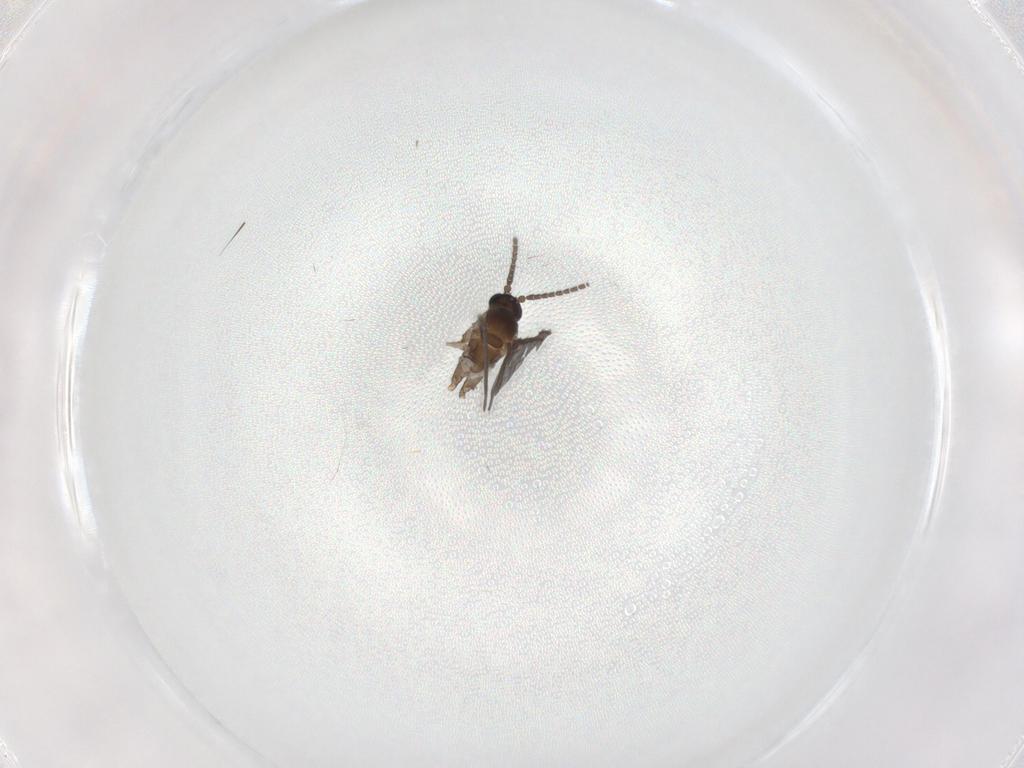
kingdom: Animalia
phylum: Arthropoda
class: Insecta
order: Diptera
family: Sciaridae
